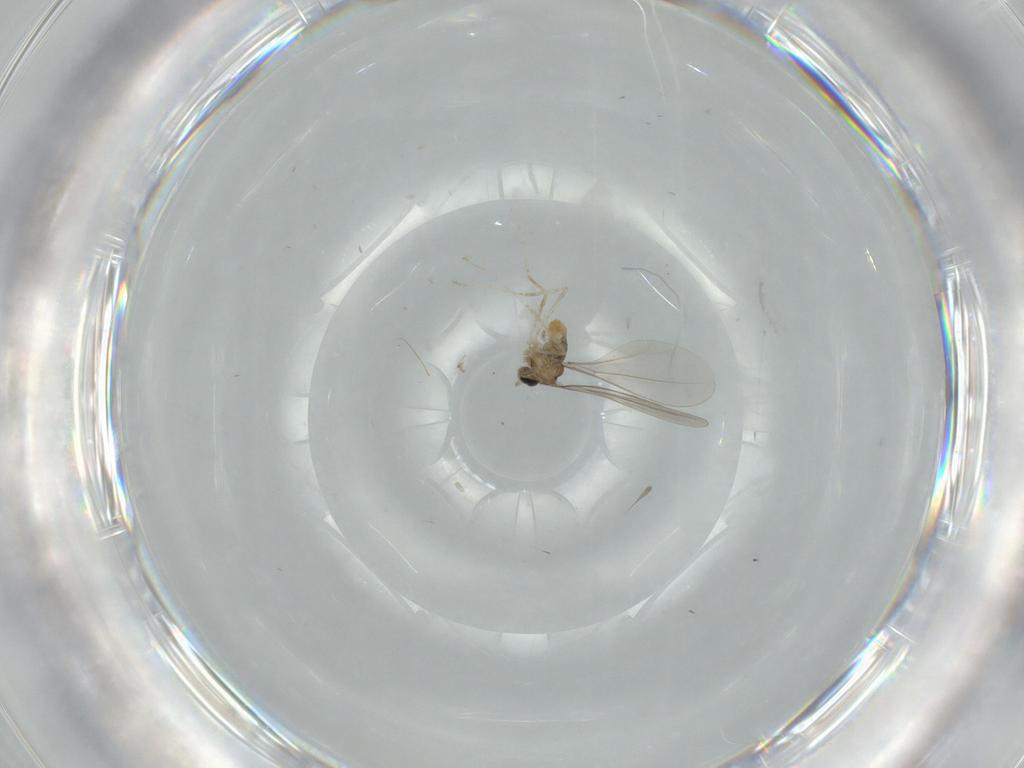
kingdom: Animalia
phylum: Arthropoda
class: Insecta
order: Diptera
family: Cecidomyiidae
